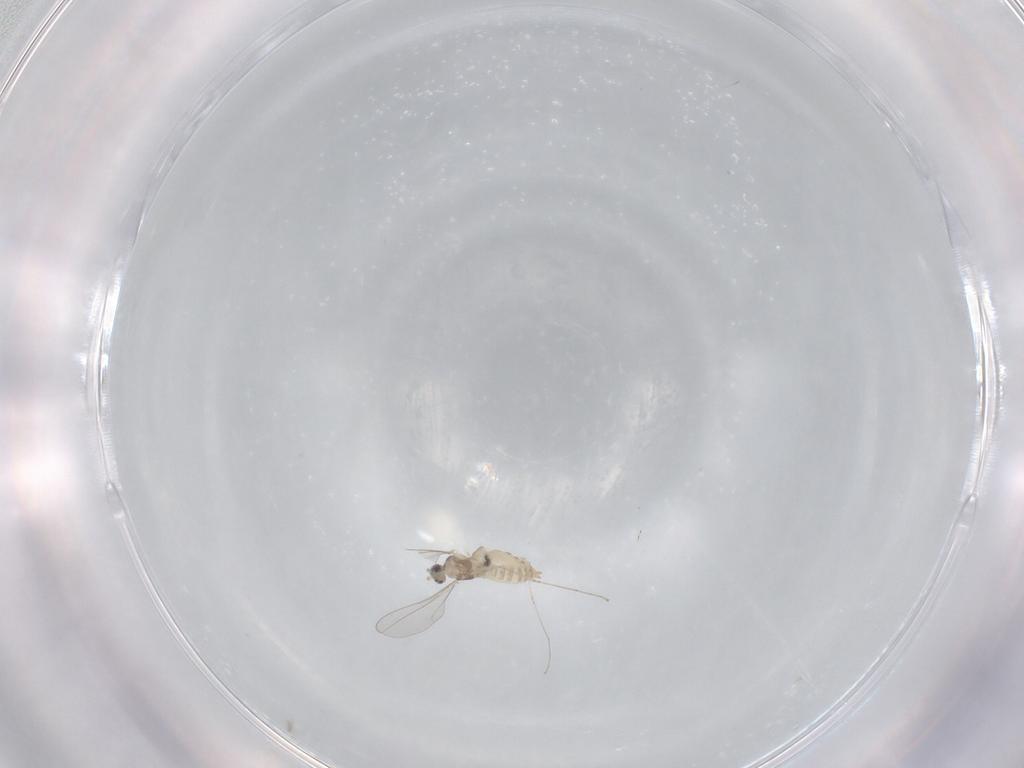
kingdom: Animalia
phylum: Arthropoda
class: Insecta
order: Diptera
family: Cecidomyiidae
